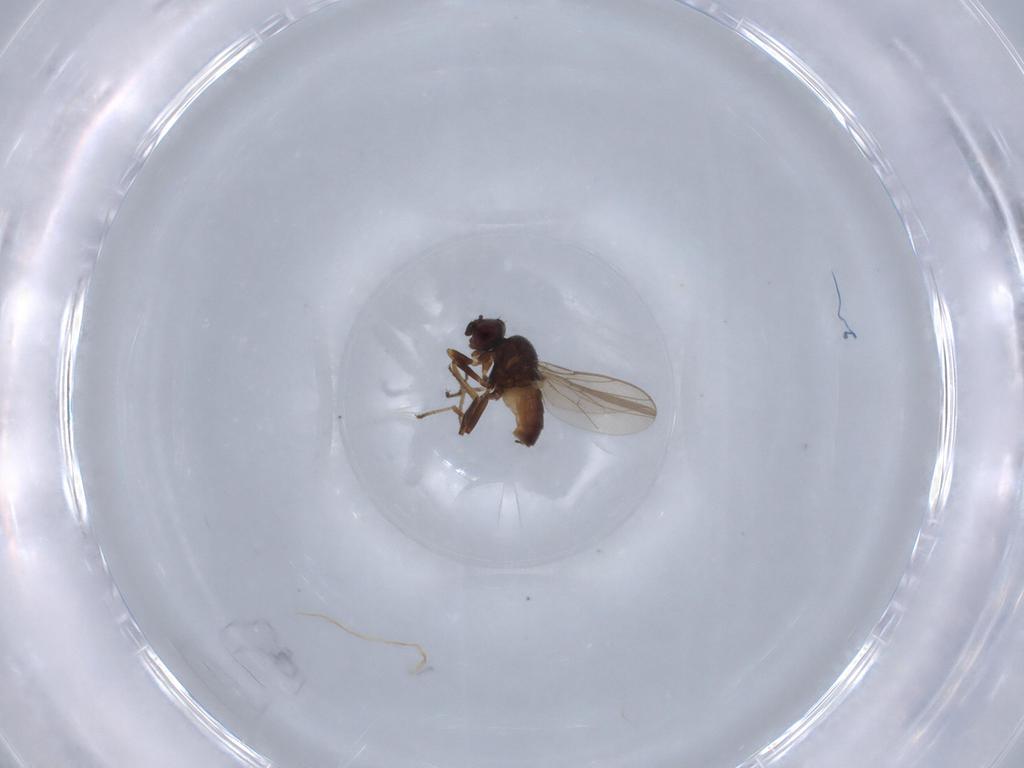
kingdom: Animalia
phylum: Arthropoda
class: Insecta
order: Diptera
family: Chloropidae
